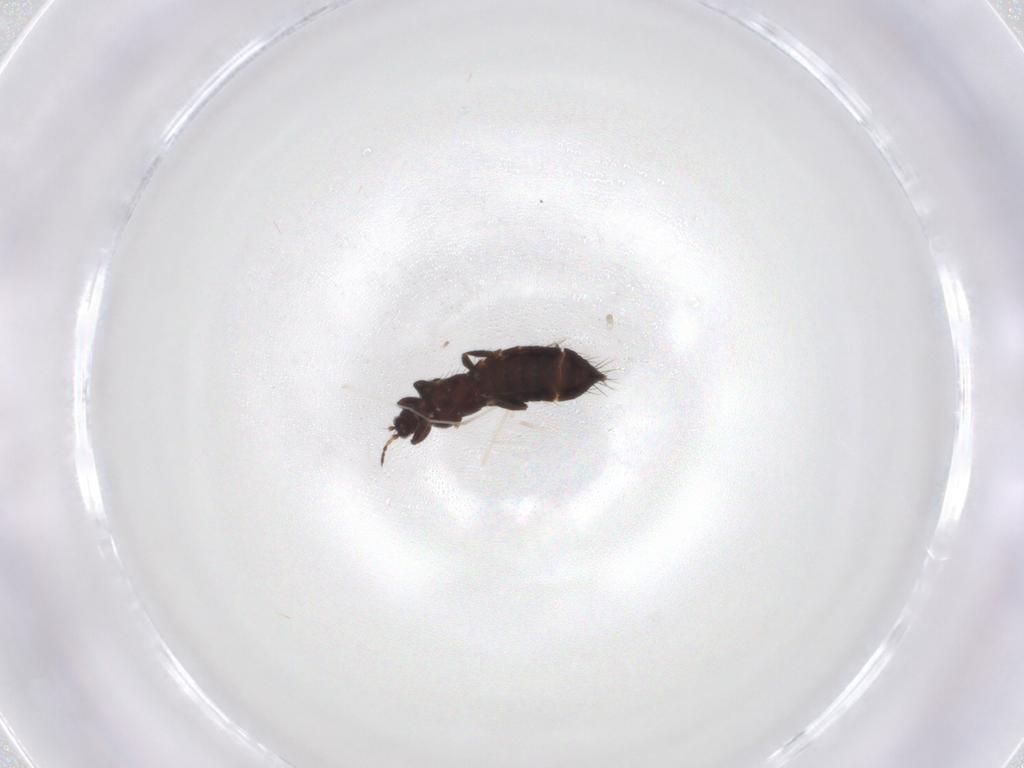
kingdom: Animalia
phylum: Arthropoda
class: Insecta
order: Thysanoptera
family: Thripidae
